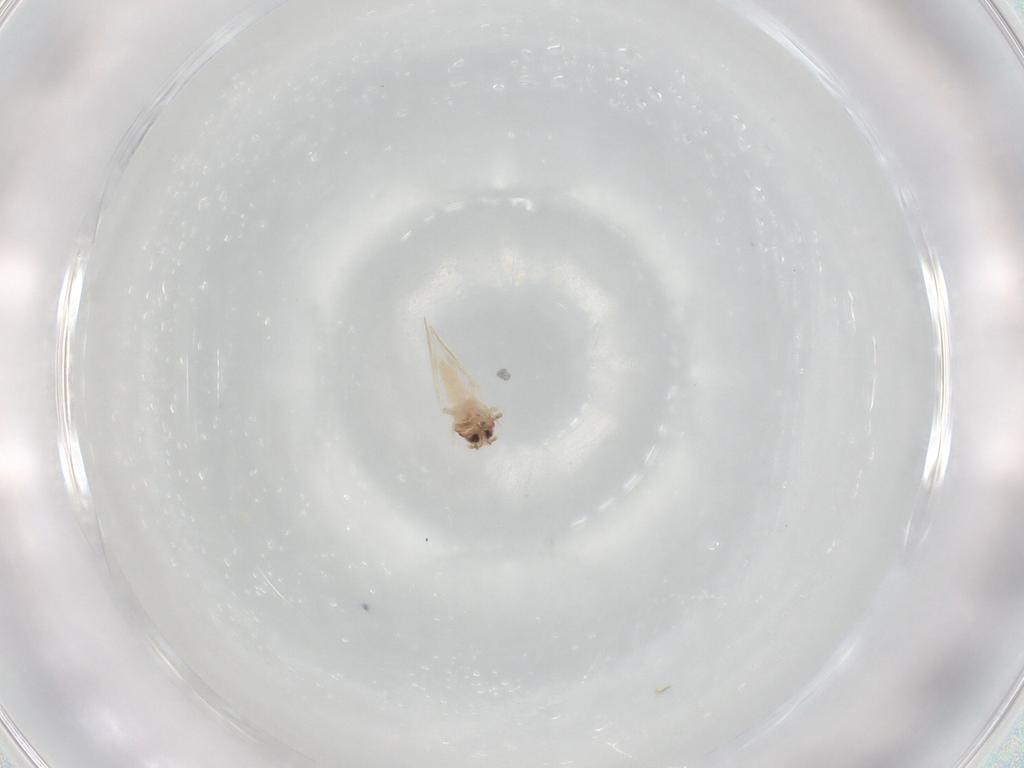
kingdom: Animalia
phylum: Arthropoda
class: Insecta
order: Hemiptera
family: Aleyrodidae
